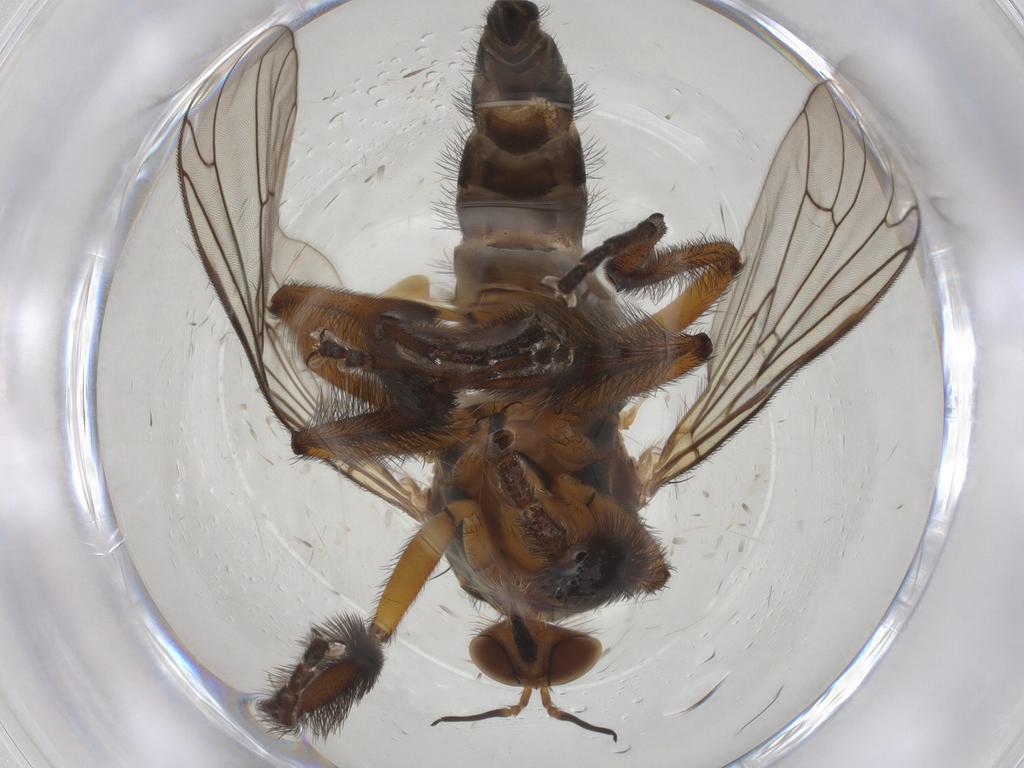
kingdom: Animalia
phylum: Arthropoda
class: Insecta
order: Diptera
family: Empididae
